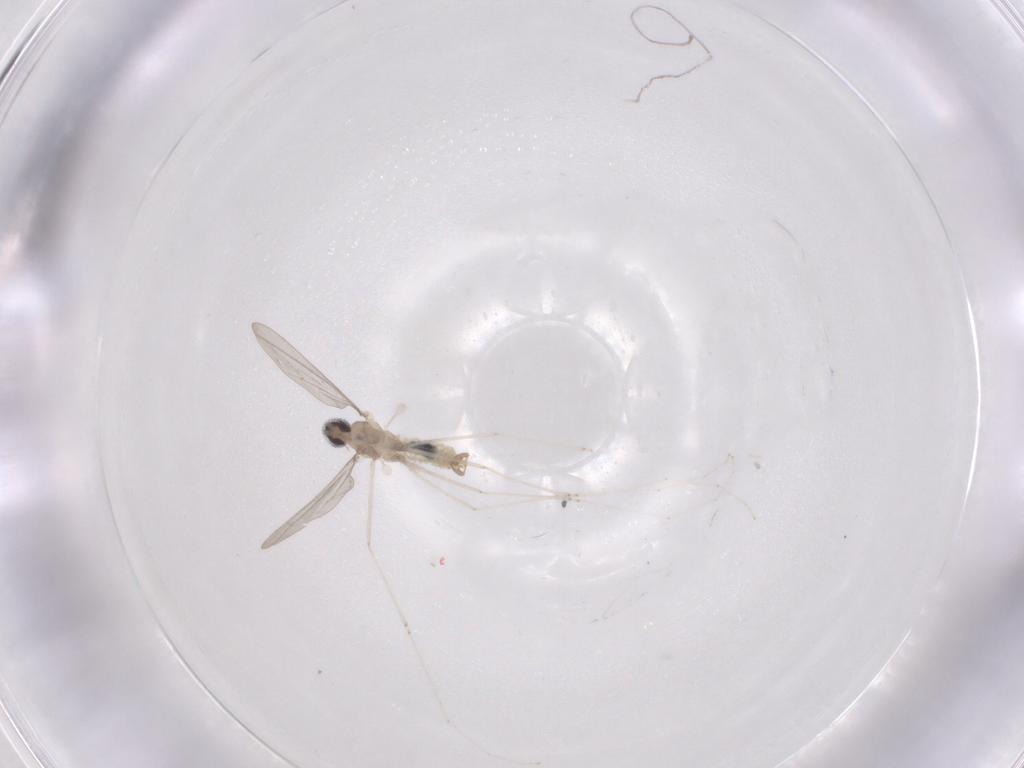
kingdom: Animalia
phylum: Arthropoda
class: Insecta
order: Diptera
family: Cecidomyiidae
